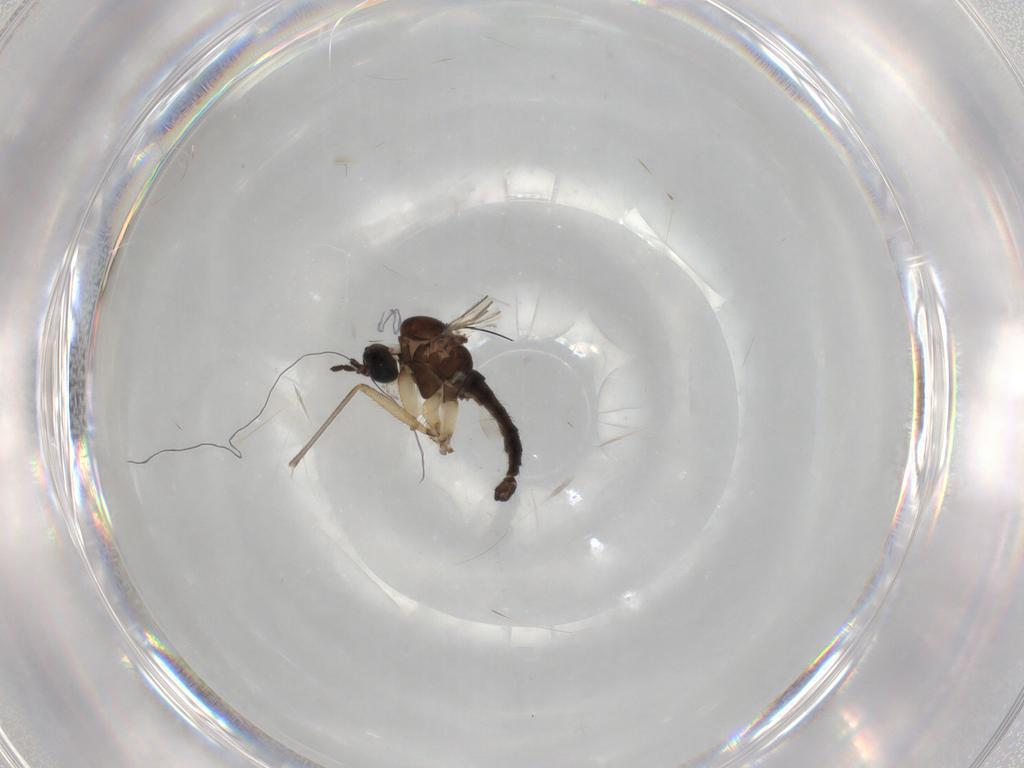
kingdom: Animalia
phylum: Arthropoda
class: Insecta
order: Diptera
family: Sciaridae
